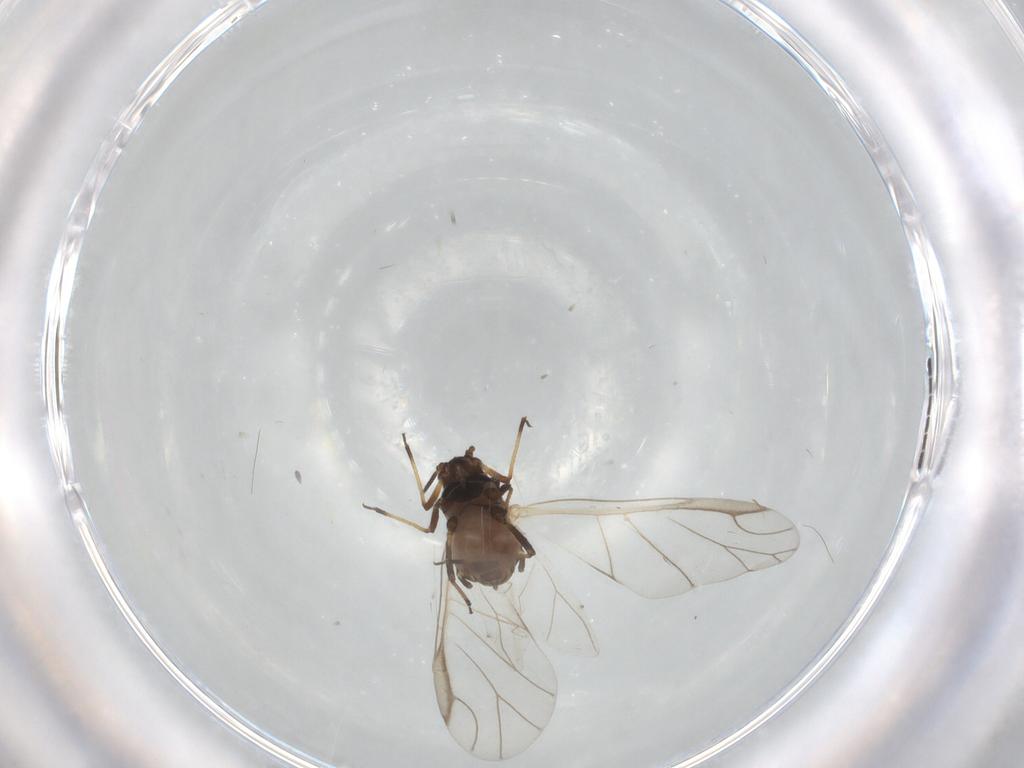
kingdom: Animalia
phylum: Arthropoda
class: Insecta
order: Hemiptera
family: Aphididae
